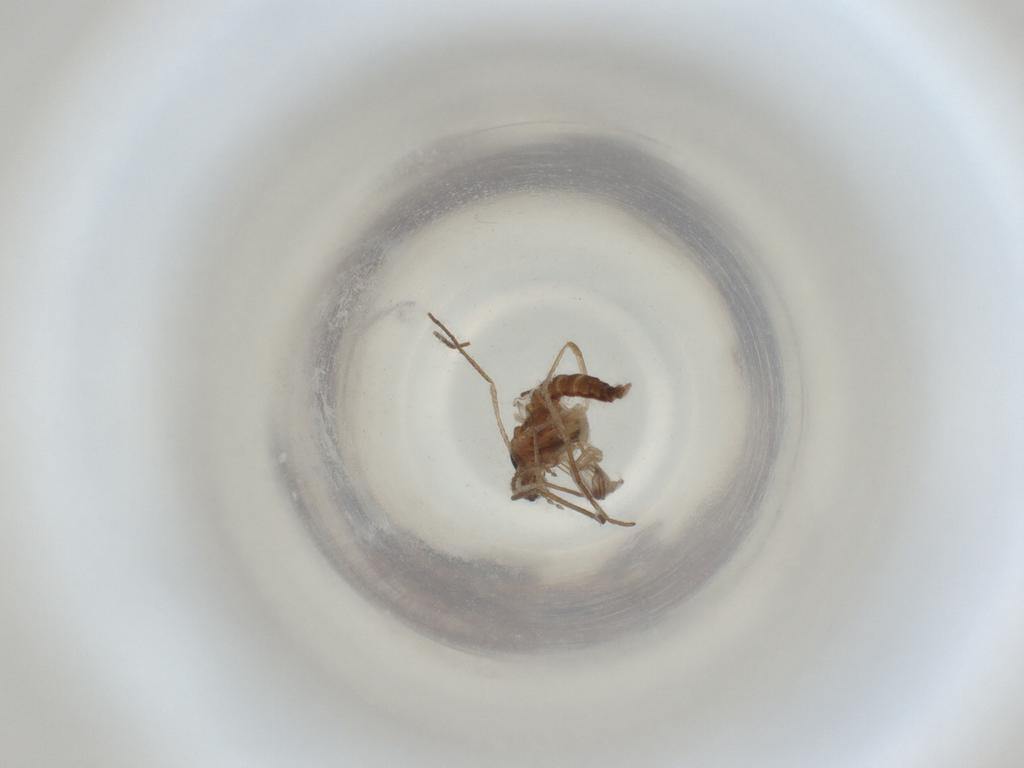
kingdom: Animalia
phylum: Arthropoda
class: Insecta
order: Diptera
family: Cecidomyiidae
